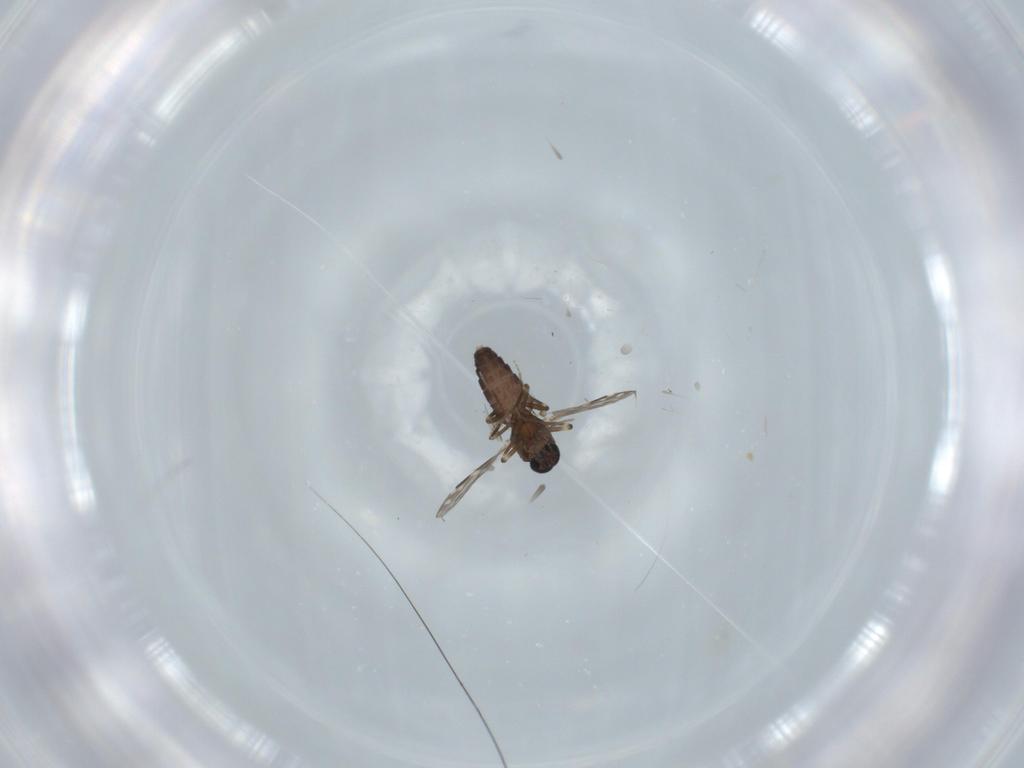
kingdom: Animalia
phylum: Arthropoda
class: Insecta
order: Diptera
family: Ceratopogonidae
